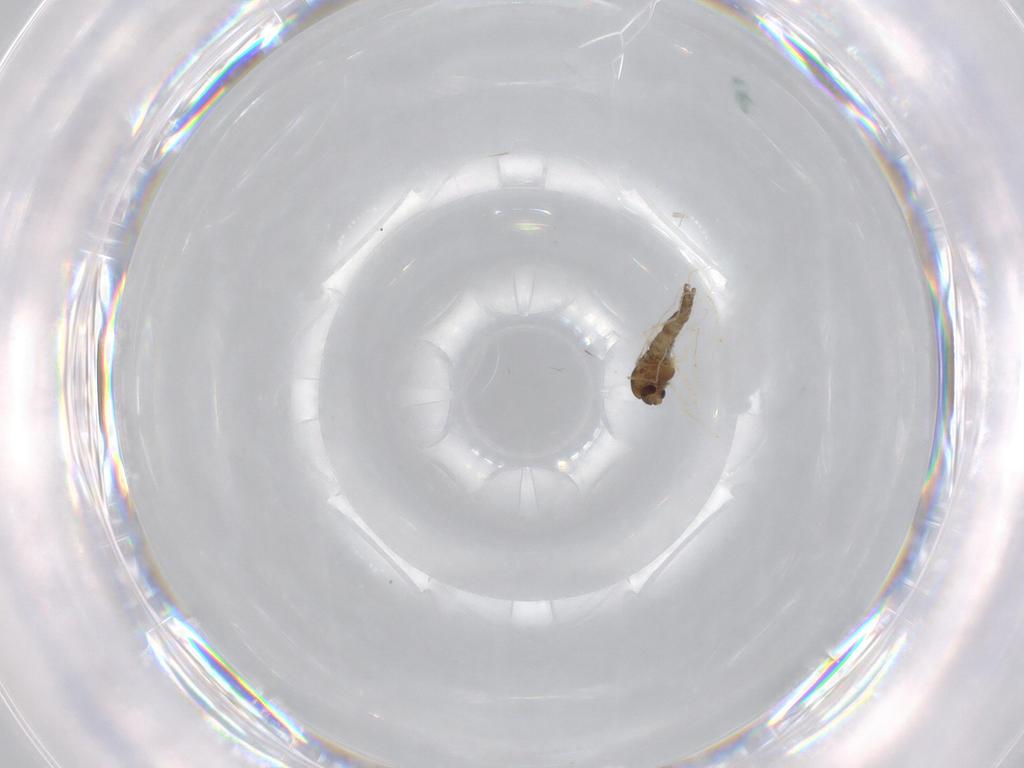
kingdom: Animalia
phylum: Arthropoda
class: Insecta
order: Diptera
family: Chironomidae
